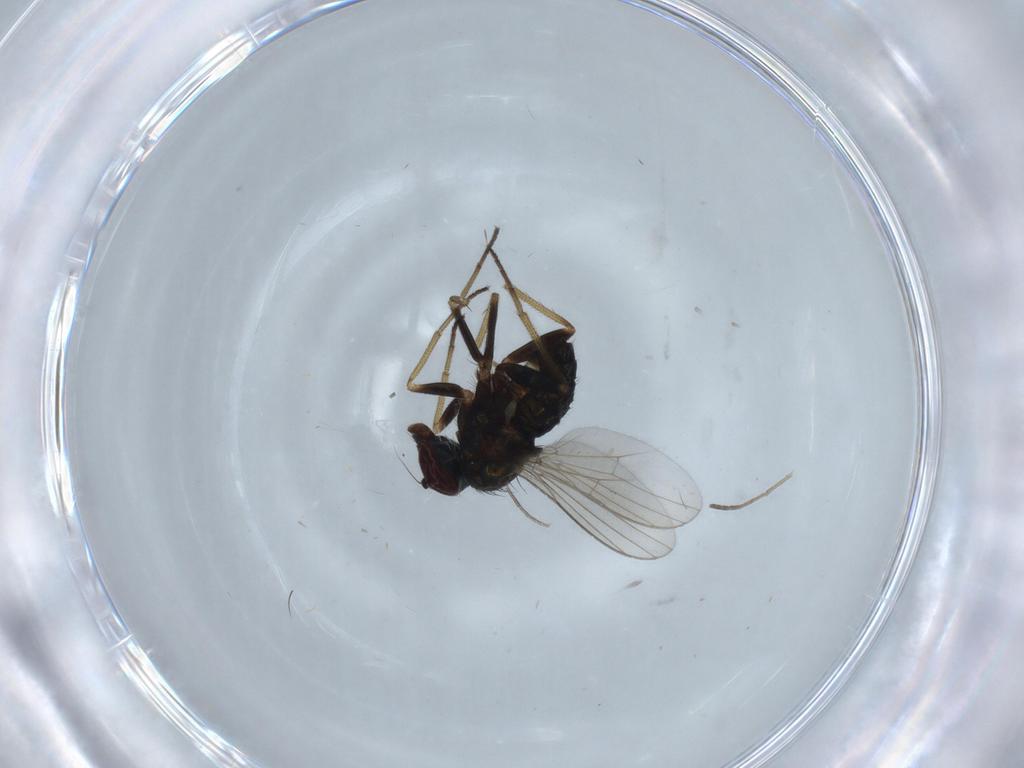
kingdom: Animalia
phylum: Arthropoda
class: Insecta
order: Diptera
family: Dolichopodidae
